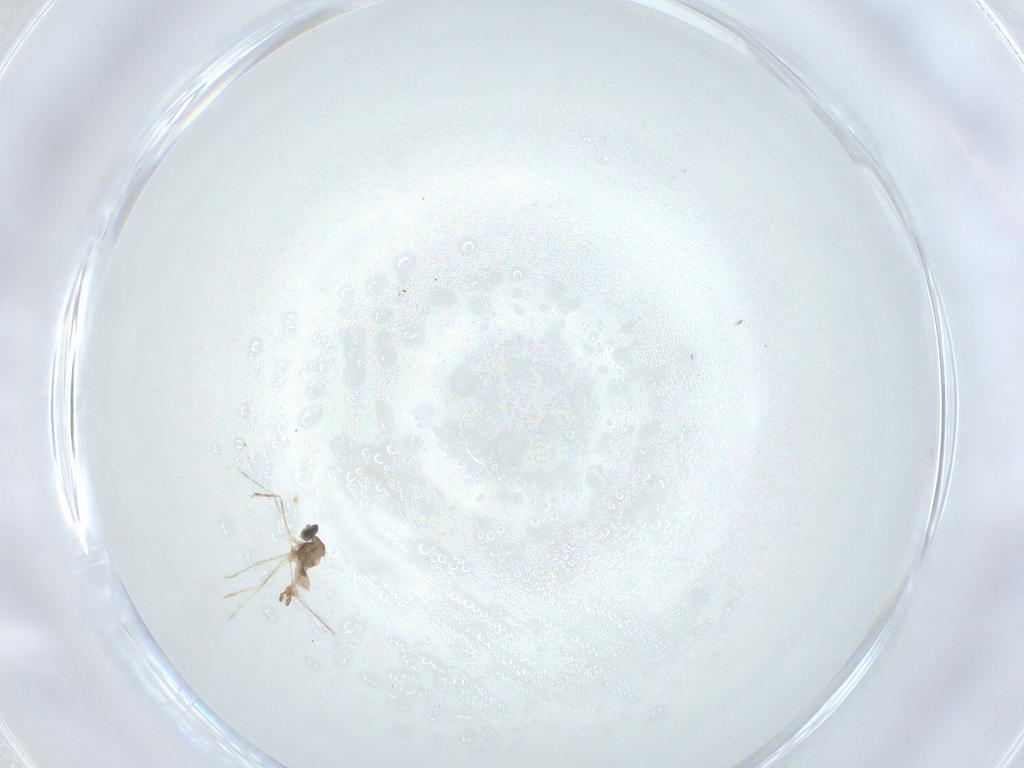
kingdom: Animalia
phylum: Arthropoda
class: Insecta
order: Diptera
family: Cecidomyiidae
